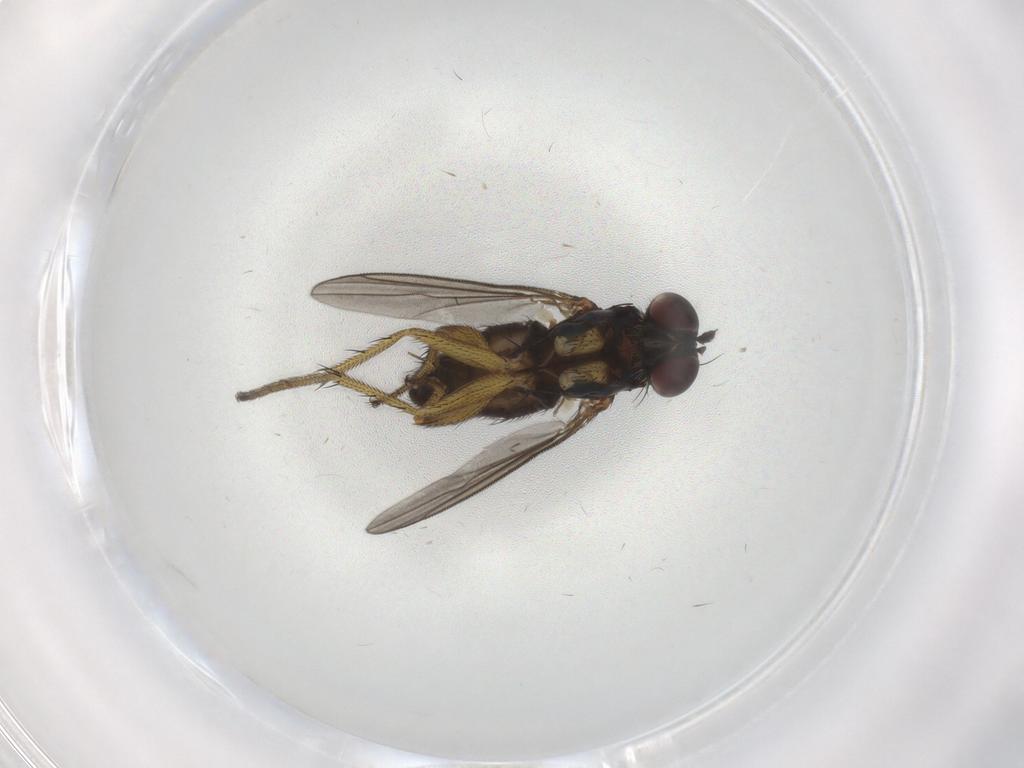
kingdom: Animalia
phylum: Arthropoda
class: Insecta
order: Diptera
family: Dolichopodidae
